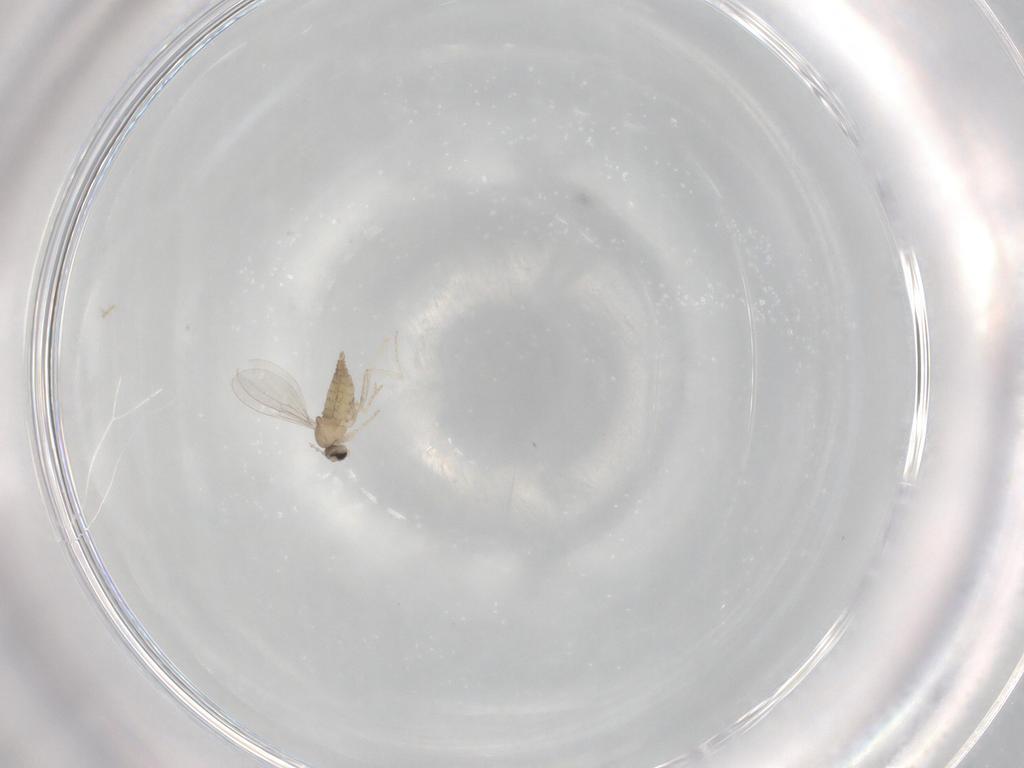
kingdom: Animalia
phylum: Arthropoda
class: Insecta
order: Diptera
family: Cecidomyiidae
